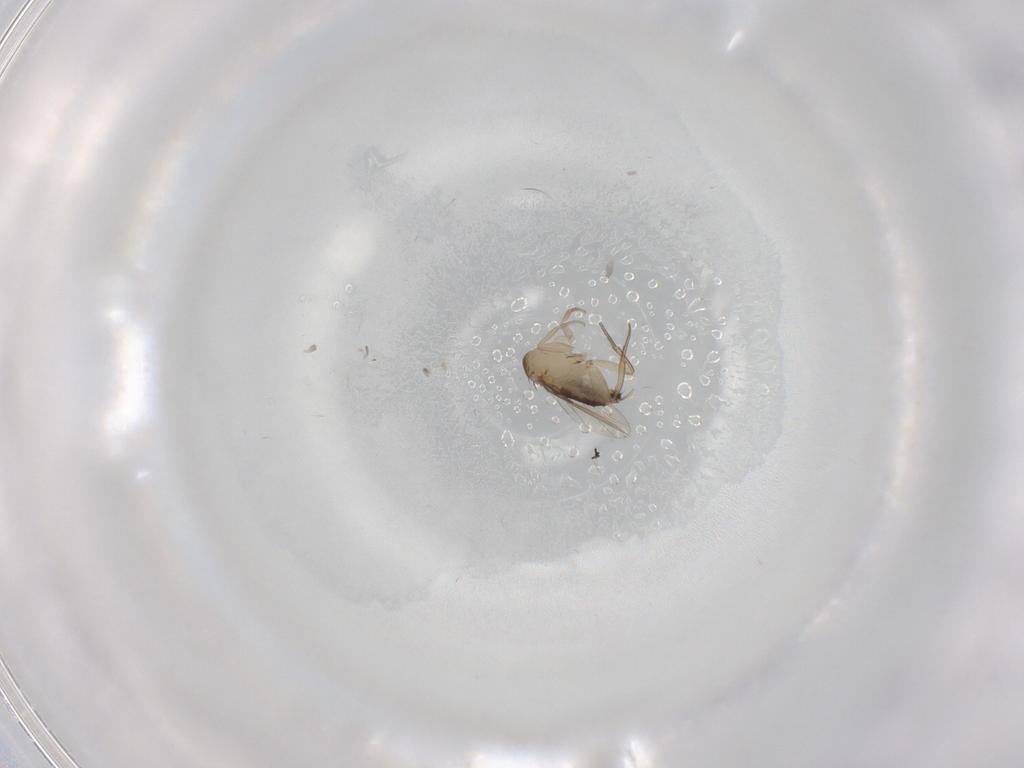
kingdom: Animalia
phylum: Arthropoda
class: Insecta
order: Diptera
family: Phoridae
